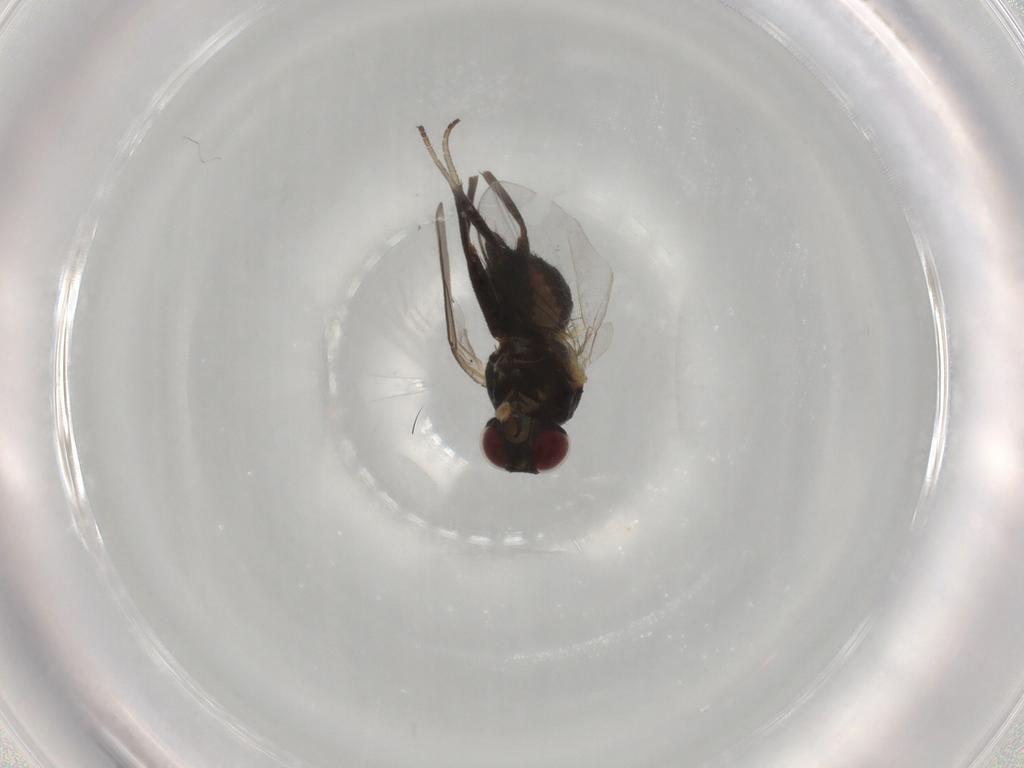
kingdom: Animalia
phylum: Arthropoda
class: Insecta
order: Diptera
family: Agromyzidae
